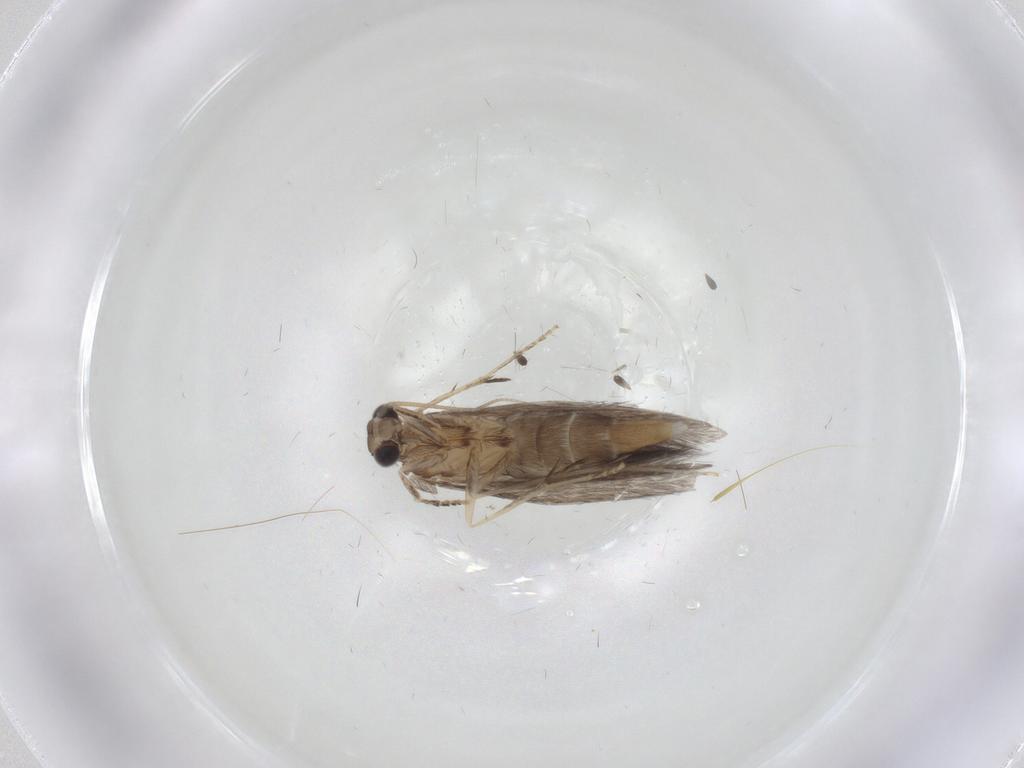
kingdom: Animalia
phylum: Arthropoda
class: Insecta
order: Trichoptera
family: Hydroptilidae
